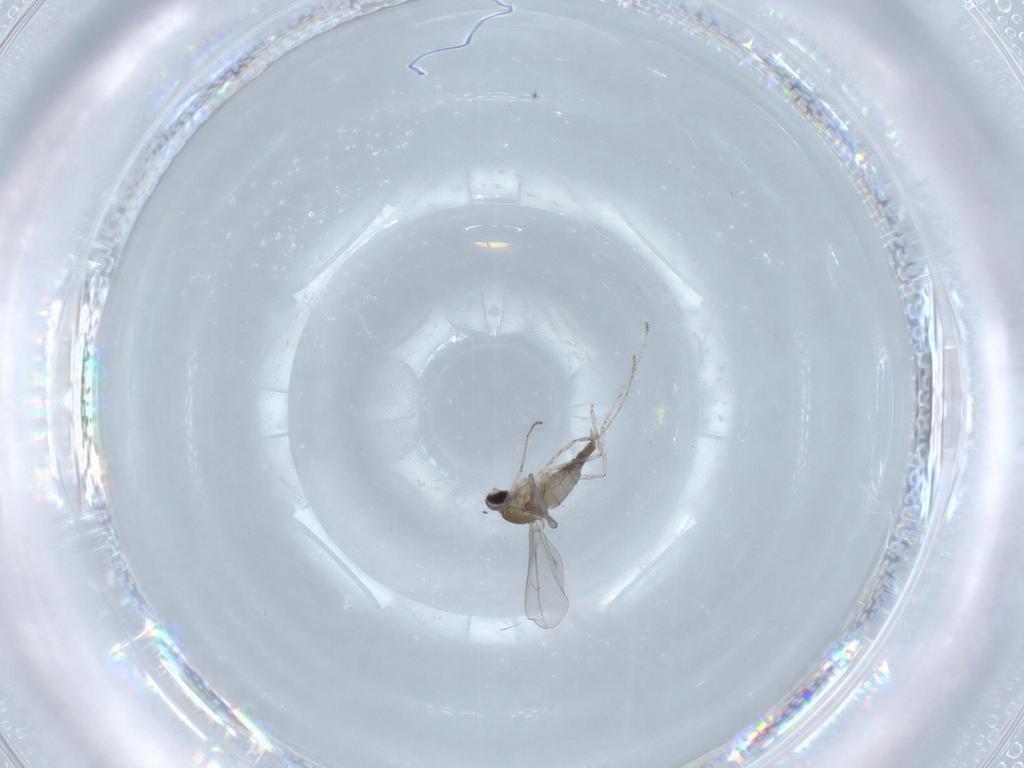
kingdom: Animalia
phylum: Arthropoda
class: Insecta
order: Diptera
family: Cecidomyiidae
